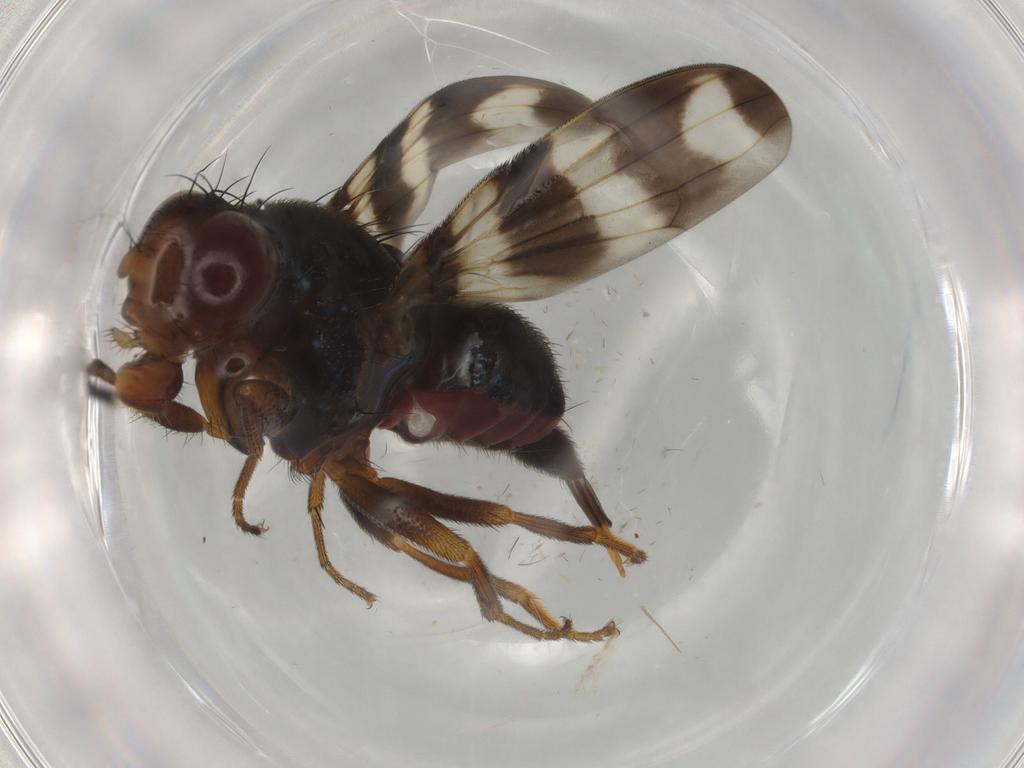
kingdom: Animalia
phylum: Arthropoda
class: Insecta
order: Diptera
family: Ulidiidae
